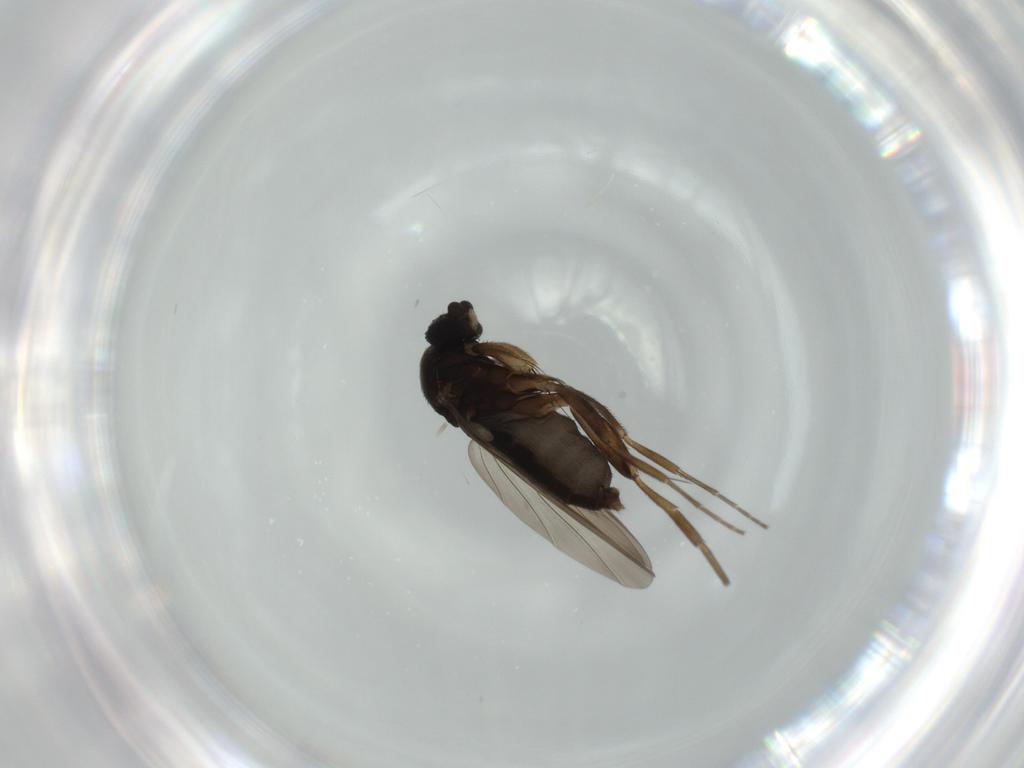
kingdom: Animalia
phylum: Arthropoda
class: Insecta
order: Diptera
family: Phoridae
